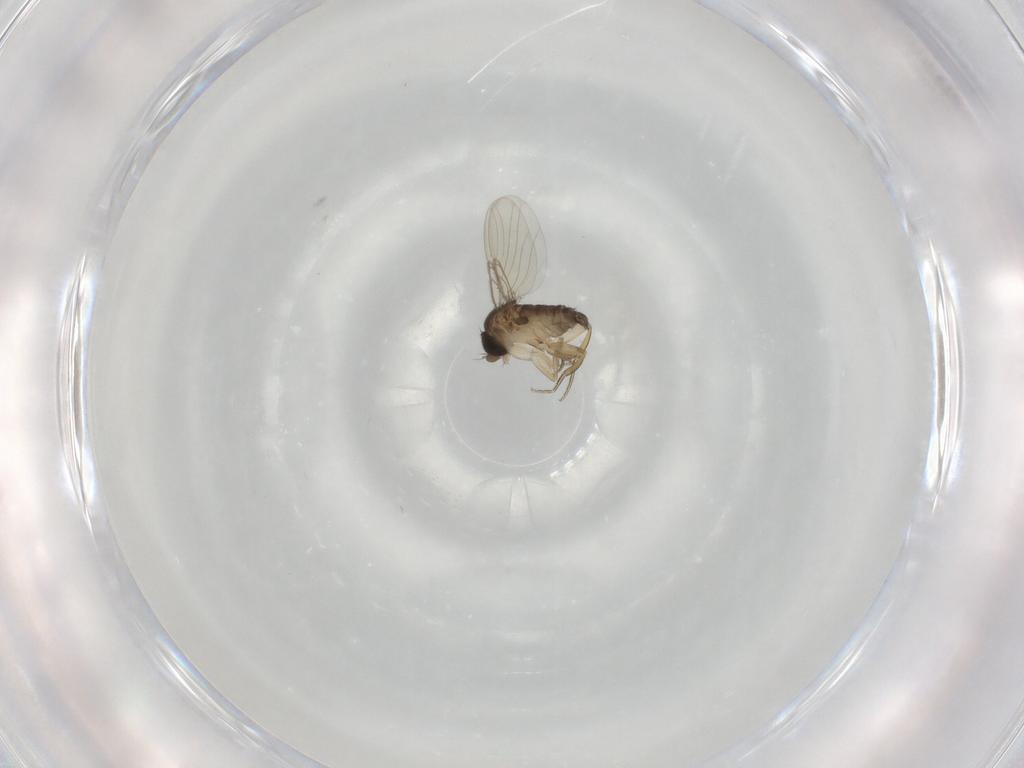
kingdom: Animalia
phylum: Arthropoda
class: Insecta
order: Diptera
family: Phoridae
